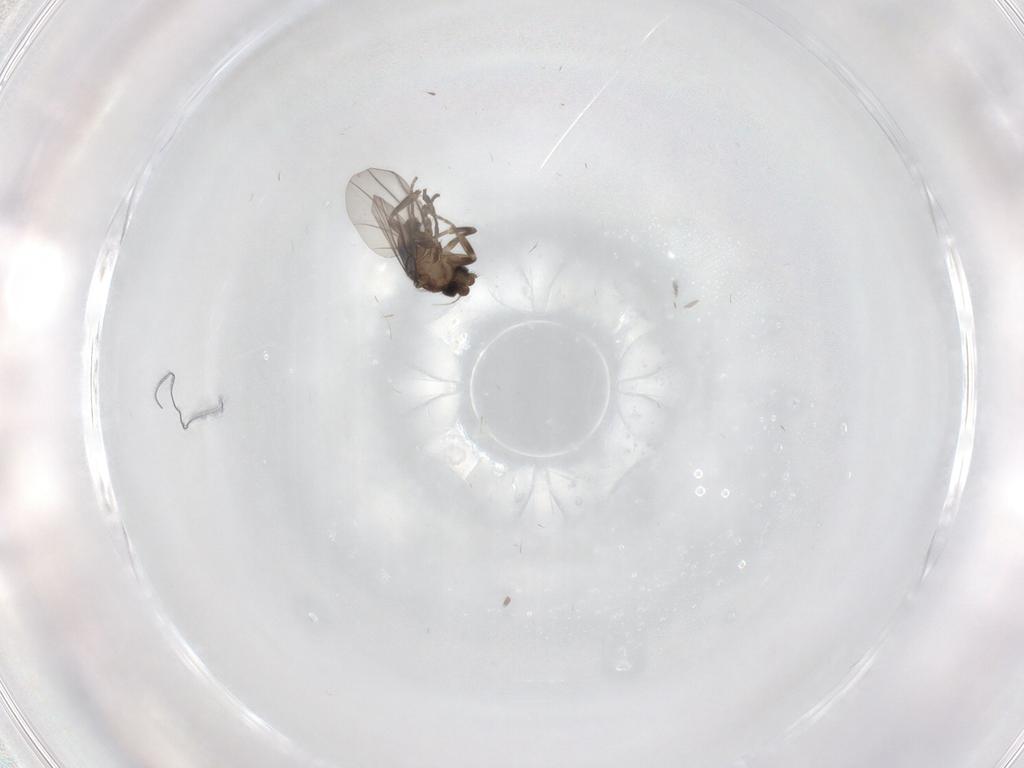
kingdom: Animalia
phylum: Arthropoda
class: Insecta
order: Diptera
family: Phoridae
